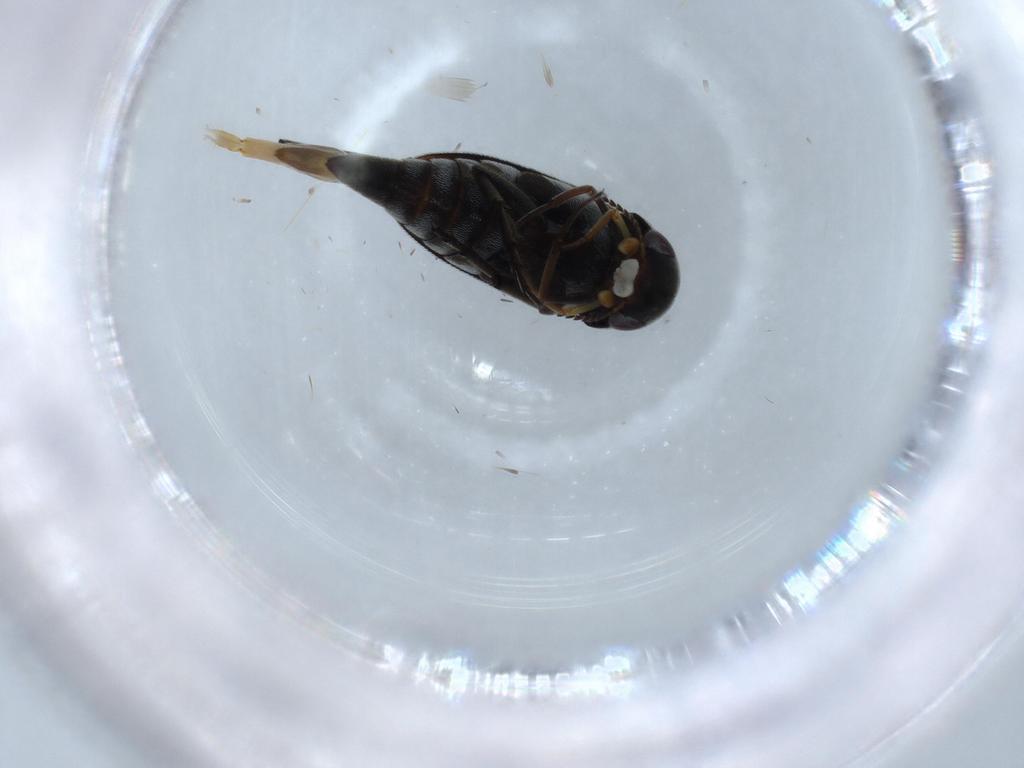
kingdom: Animalia
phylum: Arthropoda
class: Insecta
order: Coleoptera
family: Mordellidae
